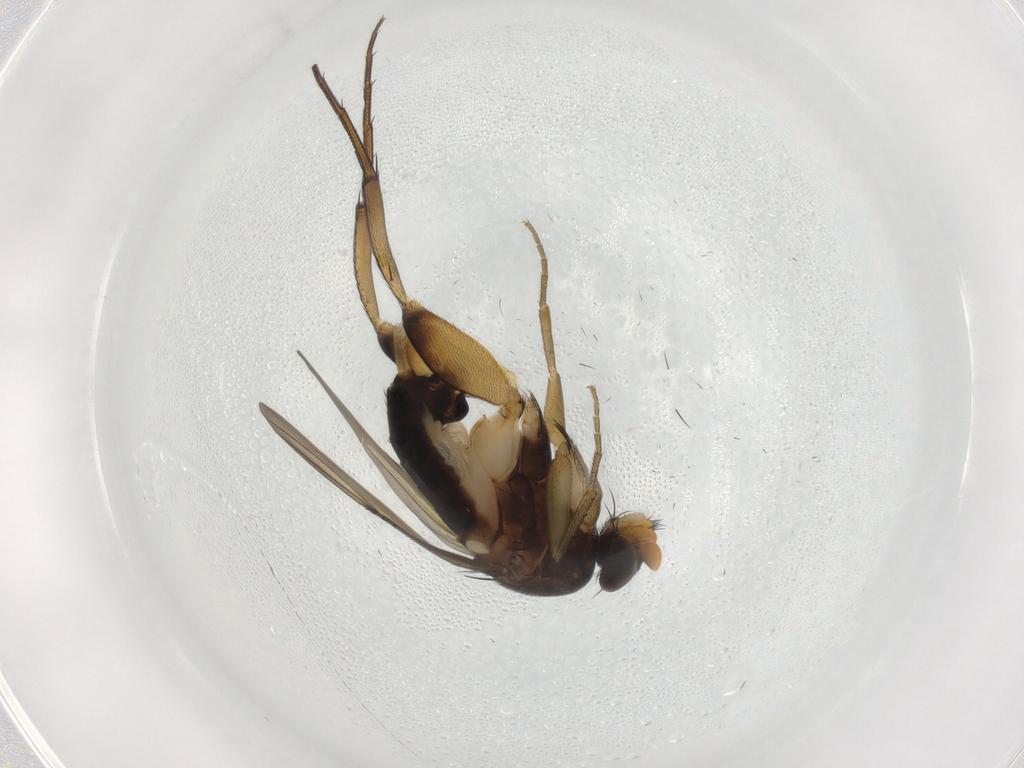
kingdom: Animalia
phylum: Arthropoda
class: Insecta
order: Diptera
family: Phoridae
